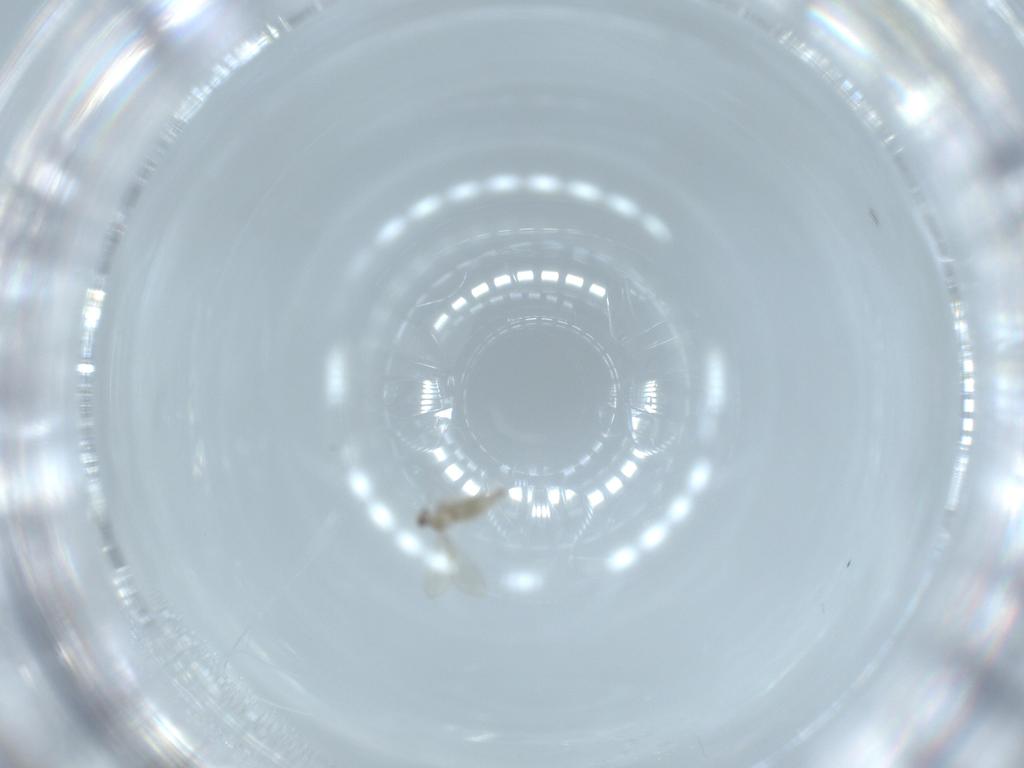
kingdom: Animalia
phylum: Arthropoda
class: Insecta
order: Diptera
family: Cecidomyiidae
